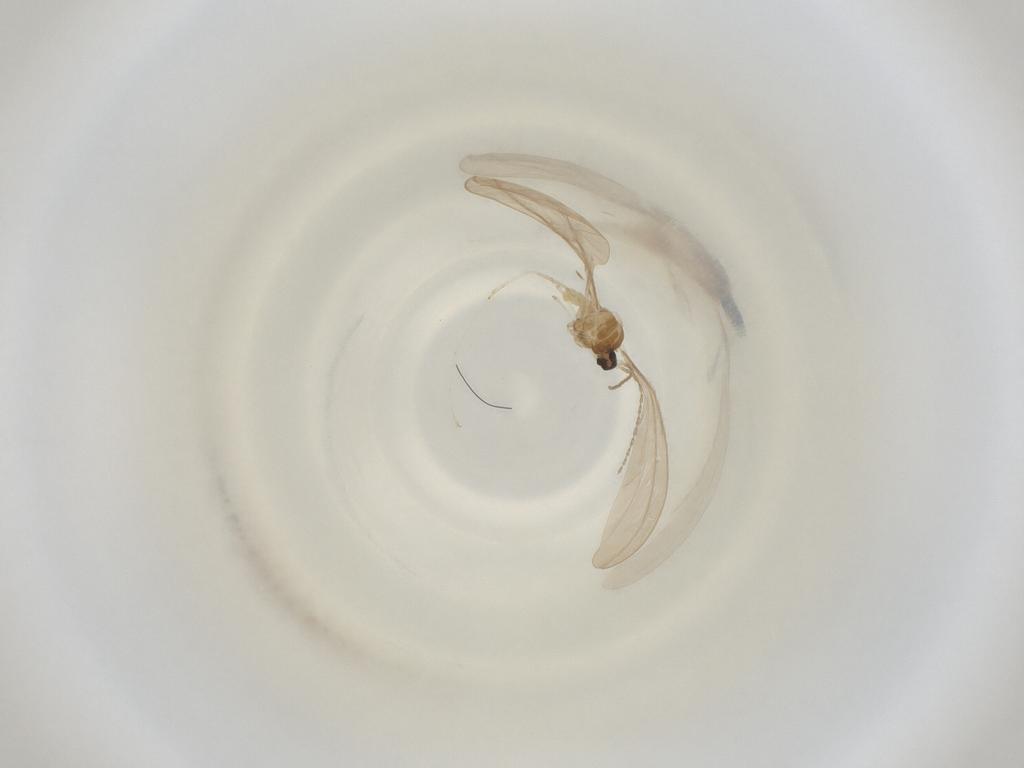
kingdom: Animalia
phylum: Arthropoda
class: Insecta
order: Diptera
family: Cecidomyiidae
